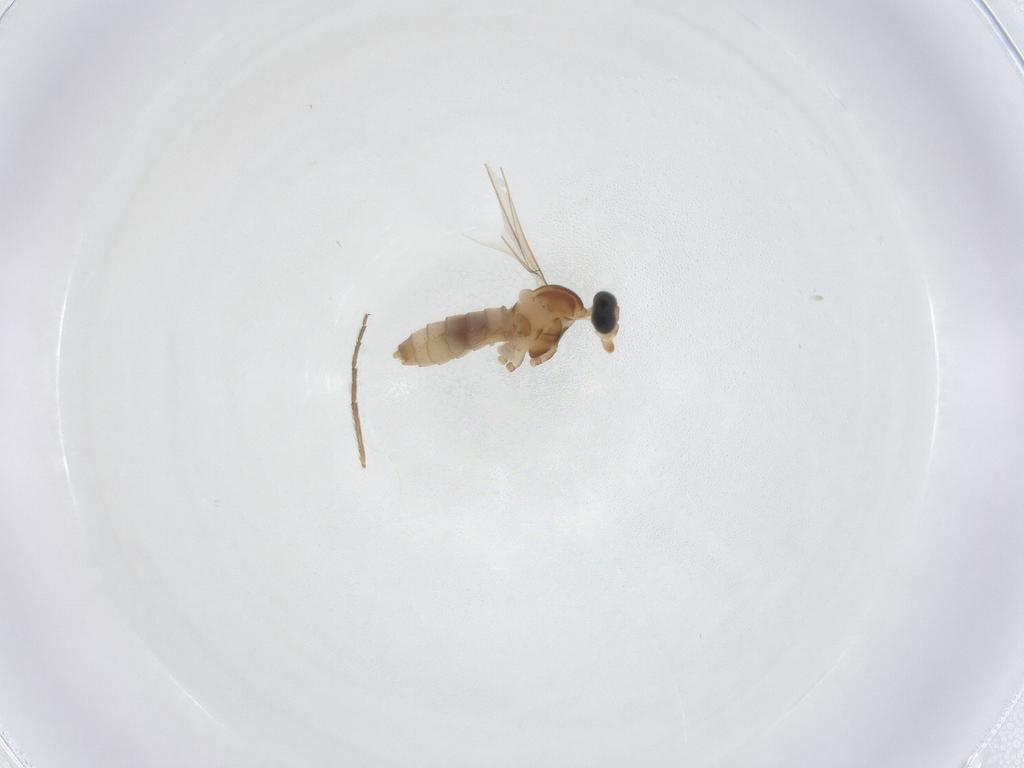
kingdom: Animalia
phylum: Arthropoda
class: Insecta
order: Diptera
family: Cecidomyiidae
